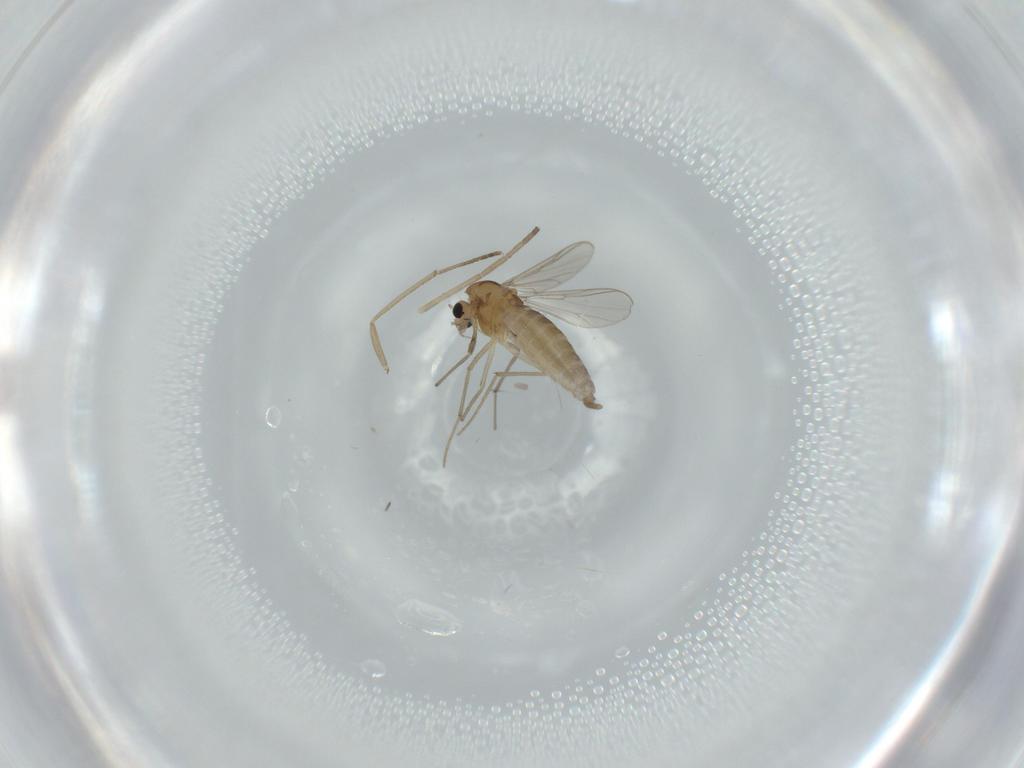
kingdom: Animalia
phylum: Arthropoda
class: Insecta
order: Diptera
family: Chironomidae
